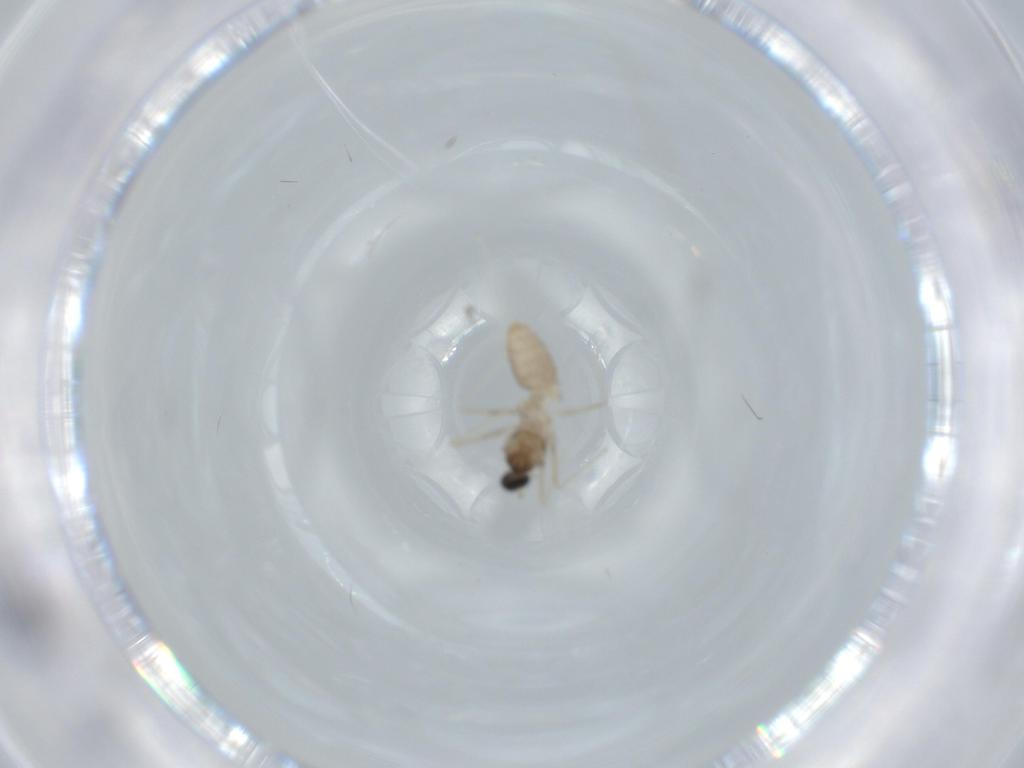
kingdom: Animalia
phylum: Arthropoda
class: Insecta
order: Diptera
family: Cecidomyiidae
